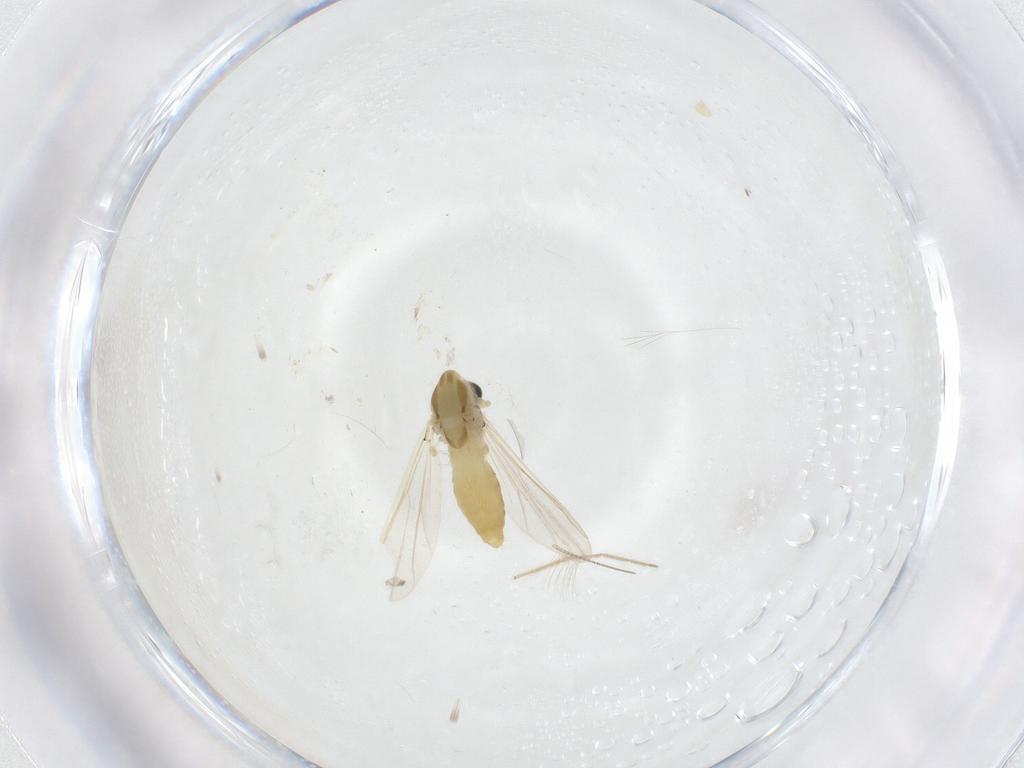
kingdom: Animalia
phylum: Arthropoda
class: Insecta
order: Diptera
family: Chironomidae
